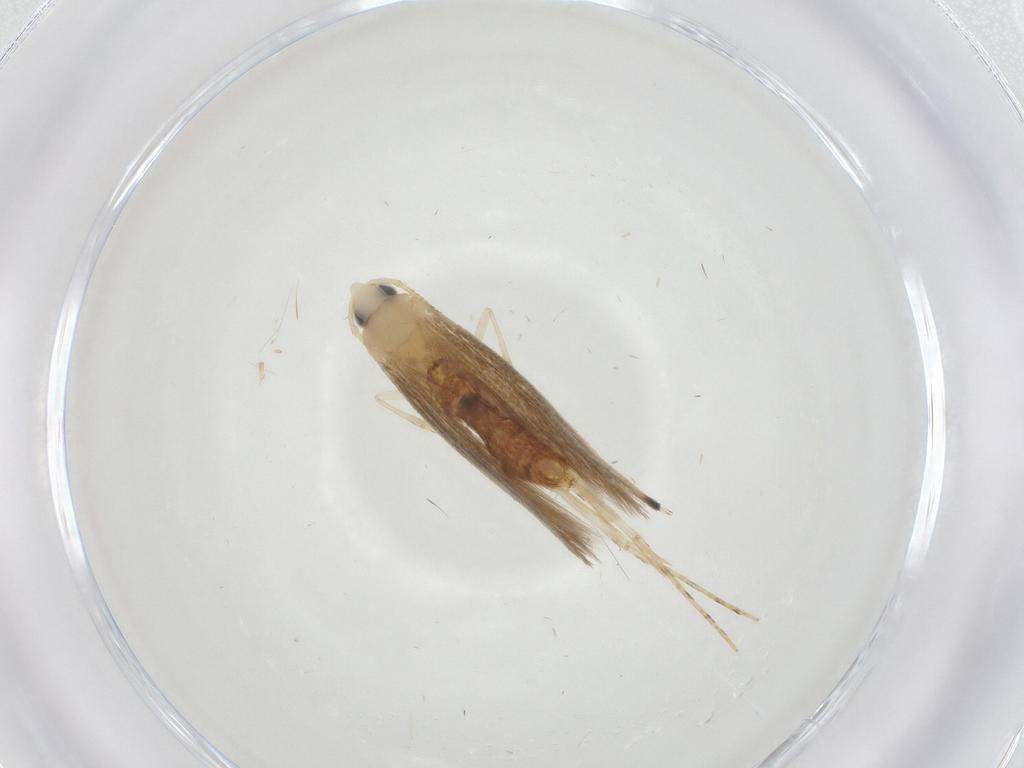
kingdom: Animalia
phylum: Arthropoda
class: Insecta
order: Lepidoptera
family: Gracillariidae
